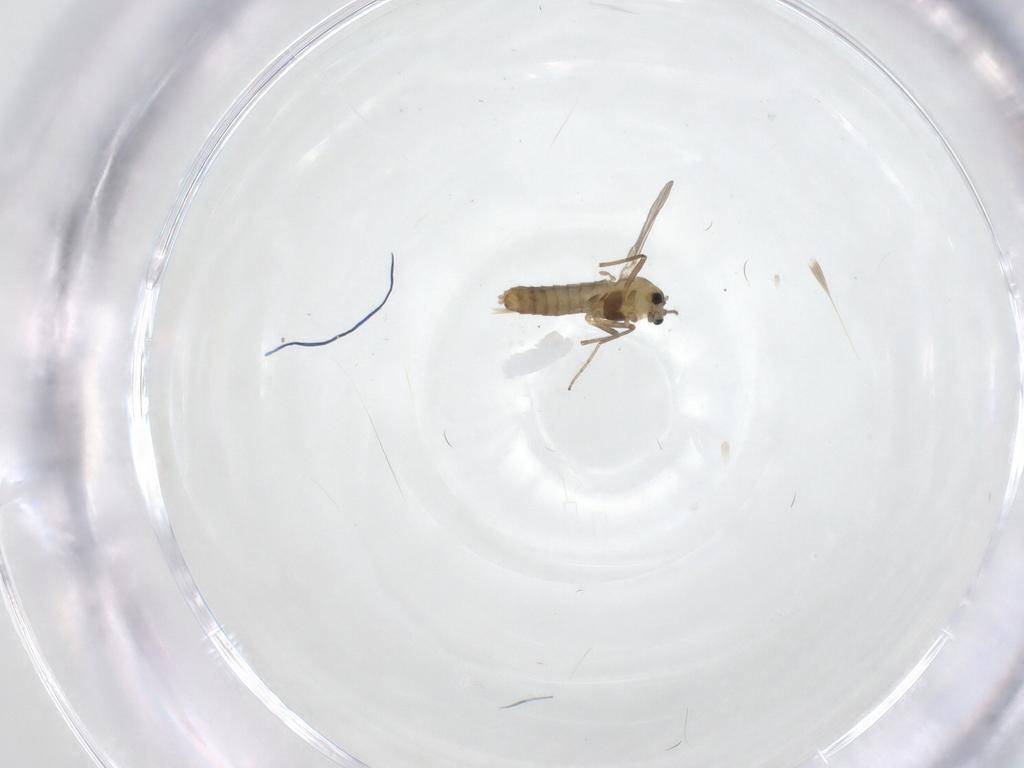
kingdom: Animalia
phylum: Arthropoda
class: Insecta
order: Diptera
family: Chironomidae
